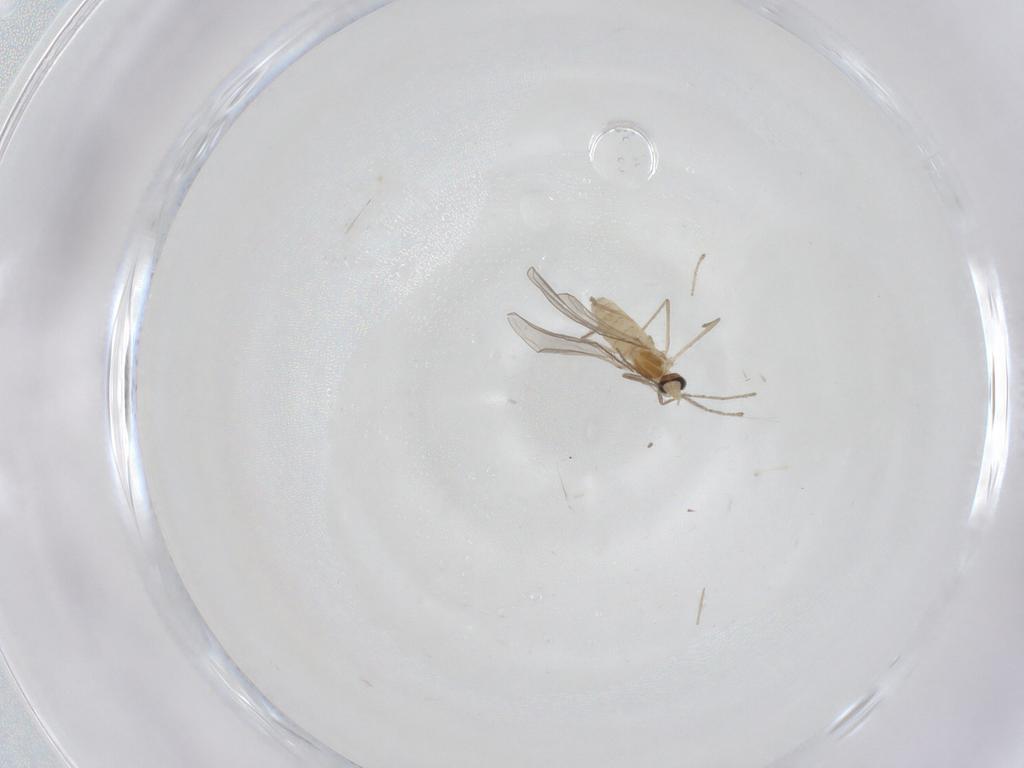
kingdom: Animalia
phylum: Arthropoda
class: Insecta
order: Diptera
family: Cecidomyiidae
